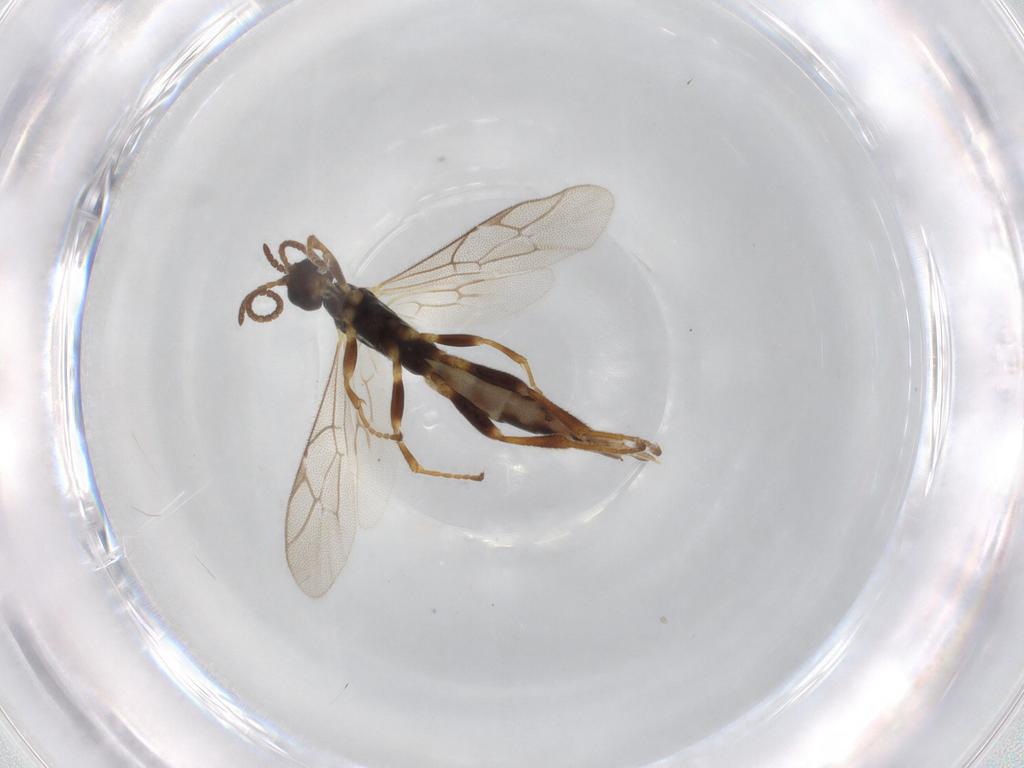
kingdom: Animalia
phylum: Arthropoda
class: Insecta
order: Hymenoptera
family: Ichneumonidae
